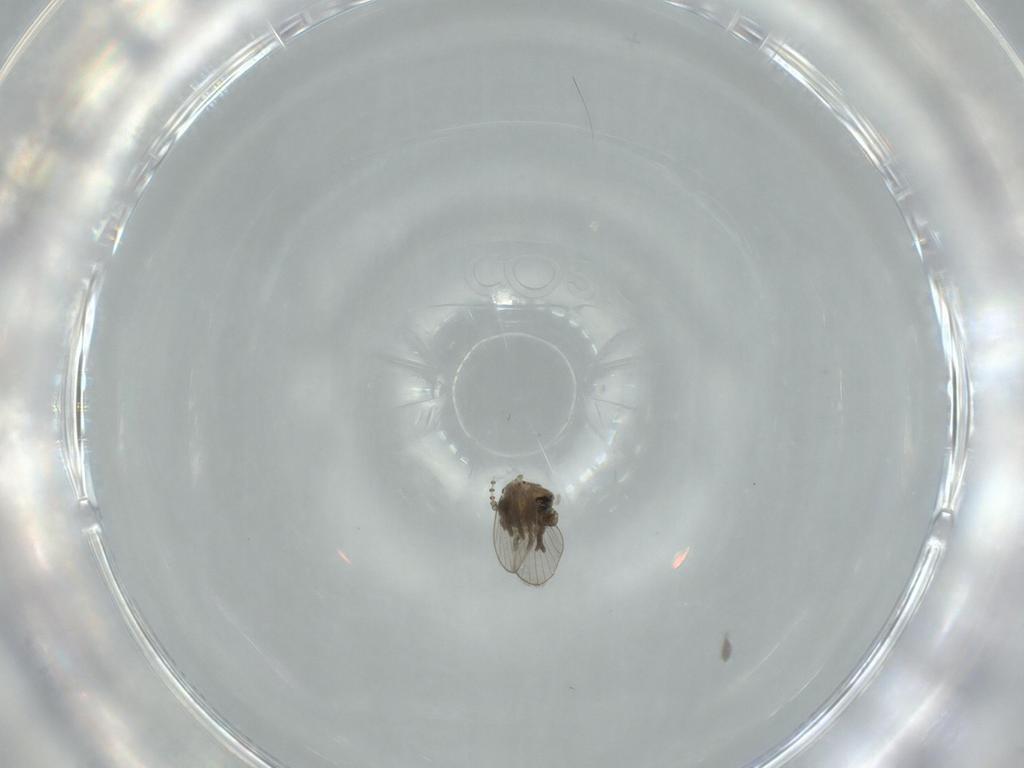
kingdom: Animalia
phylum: Arthropoda
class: Insecta
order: Diptera
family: Psychodidae
